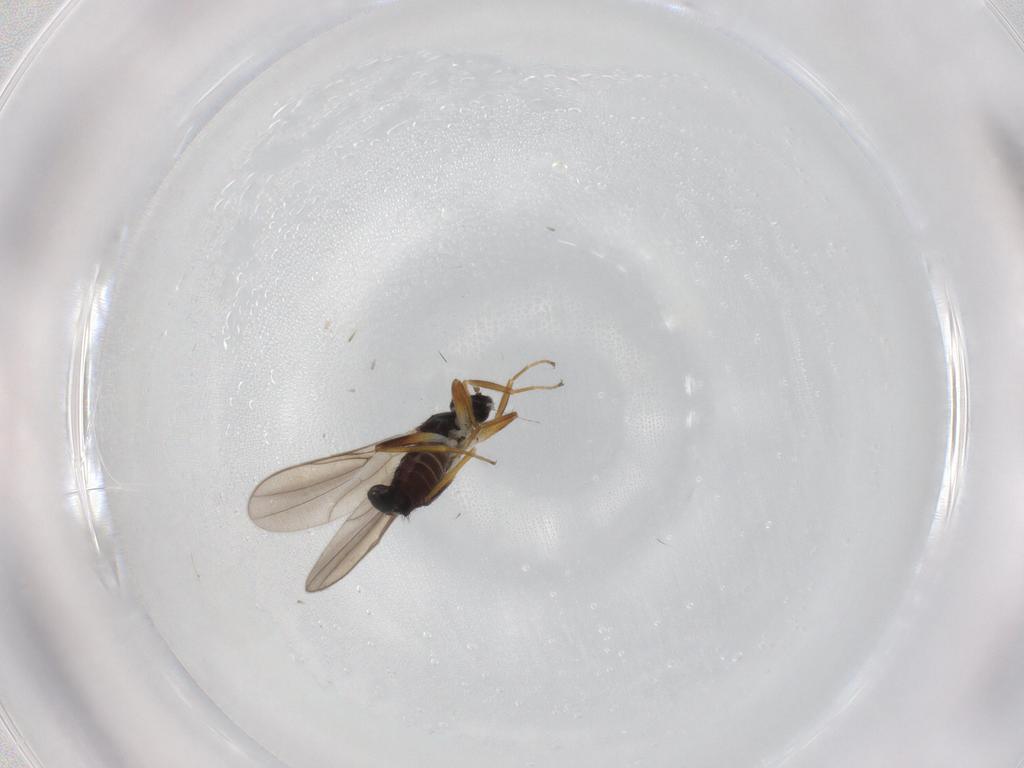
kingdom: Animalia
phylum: Arthropoda
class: Insecta
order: Diptera
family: Hybotidae
